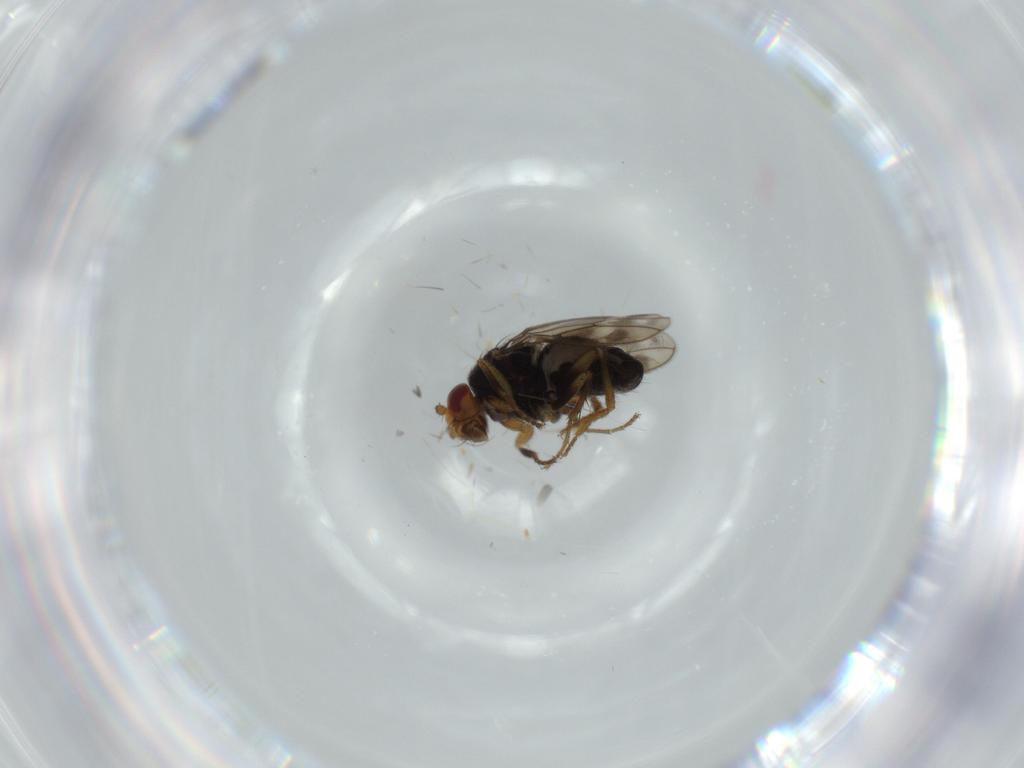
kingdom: Animalia
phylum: Arthropoda
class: Insecta
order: Diptera
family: Sphaeroceridae
